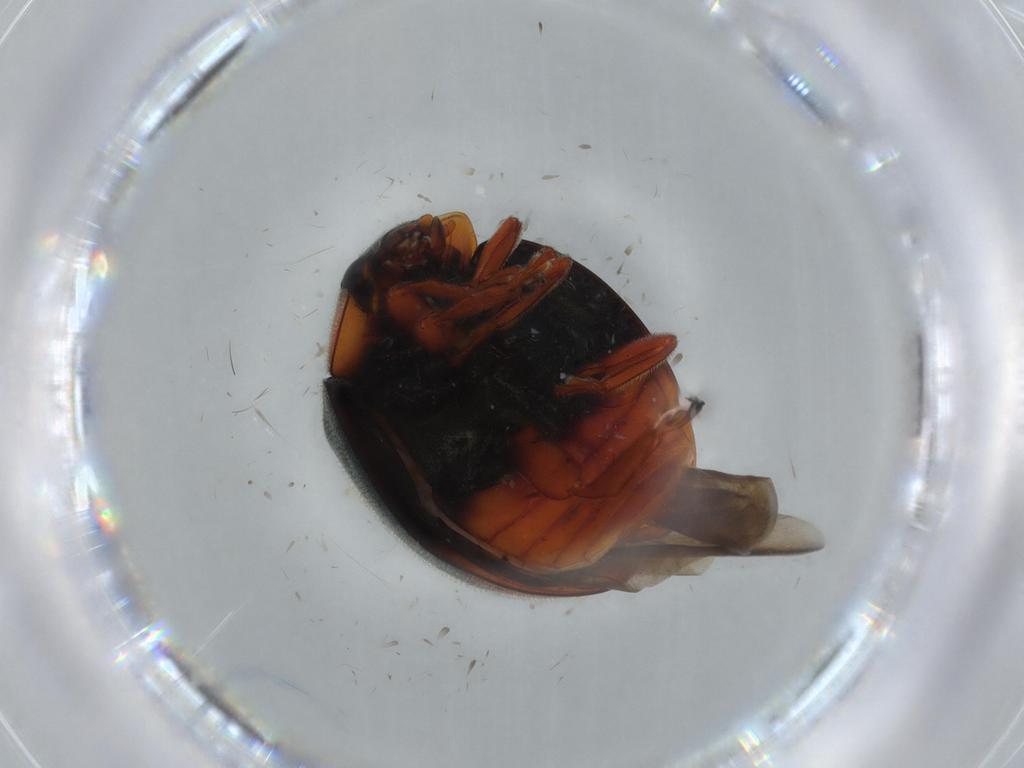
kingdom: Animalia
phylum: Arthropoda
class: Insecta
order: Coleoptera
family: Coccinellidae
